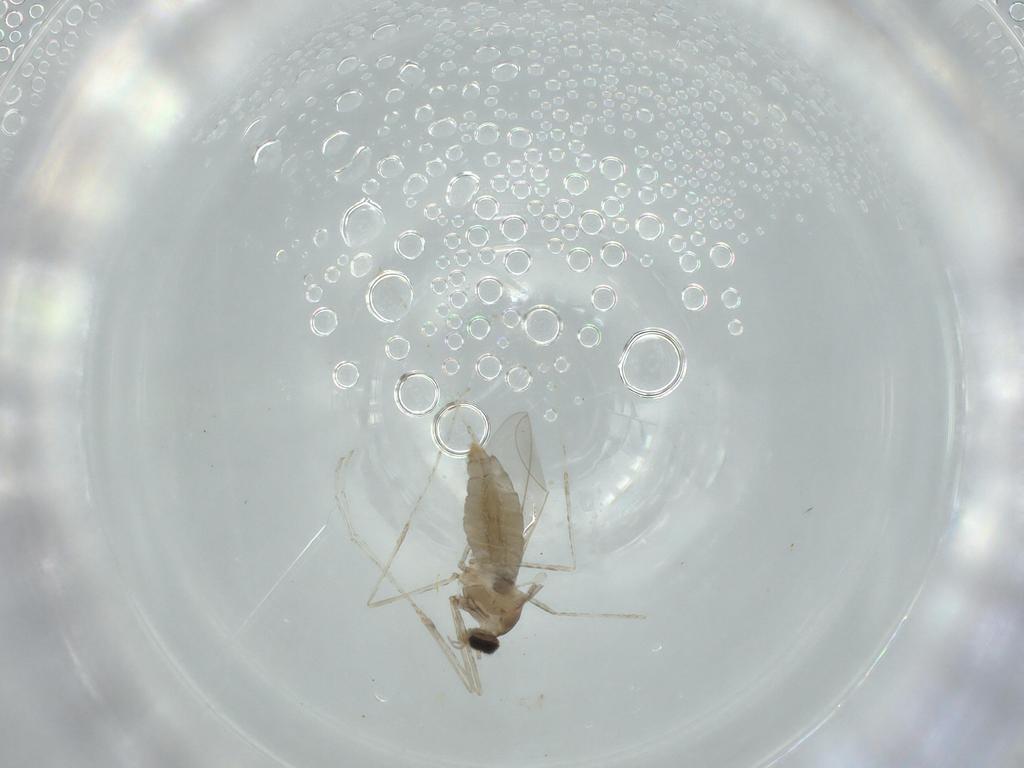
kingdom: Animalia
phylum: Arthropoda
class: Insecta
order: Diptera
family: Cecidomyiidae
